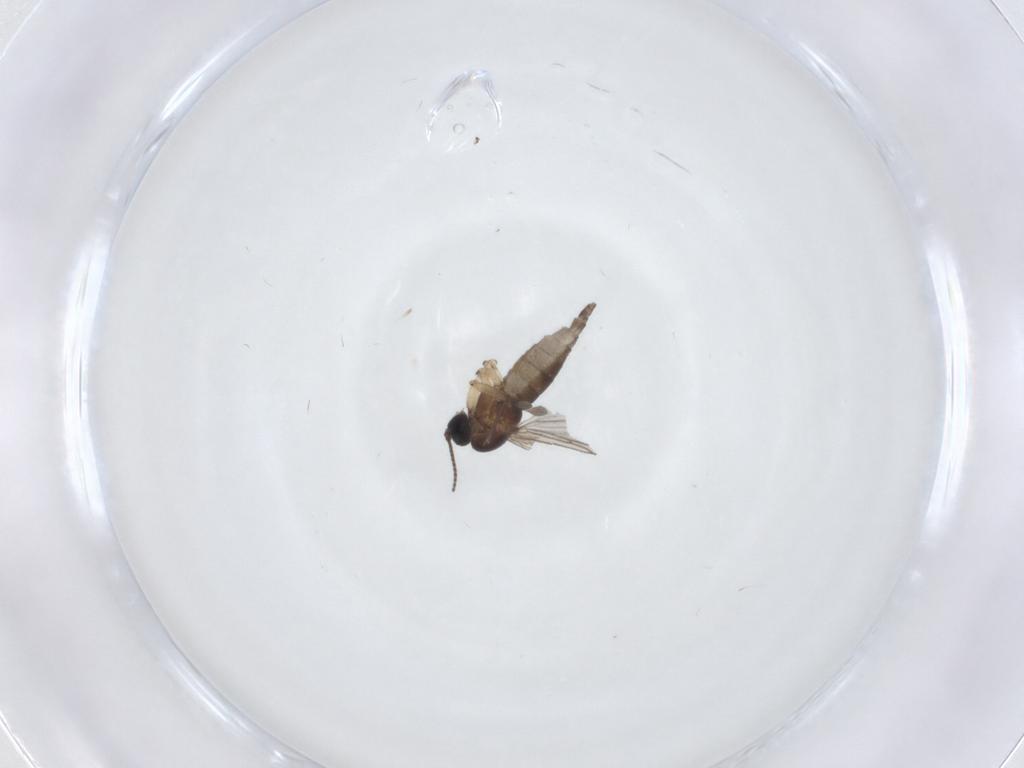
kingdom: Animalia
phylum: Arthropoda
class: Insecta
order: Diptera
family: Sciaridae
